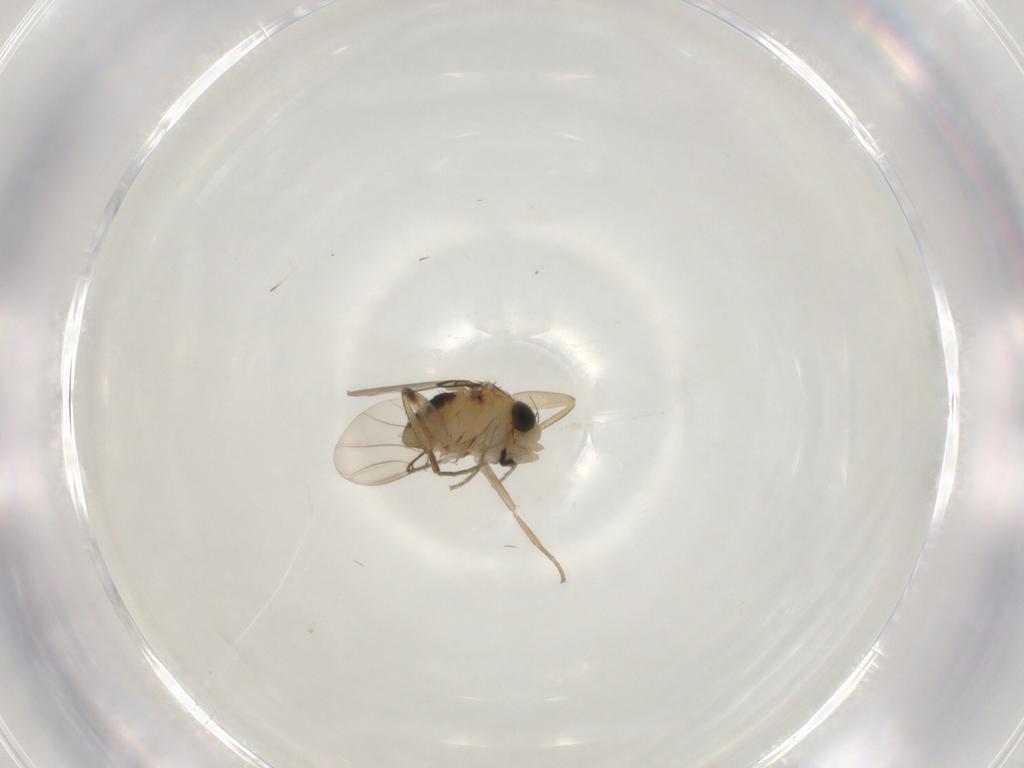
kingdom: Animalia
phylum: Arthropoda
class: Insecta
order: Diptera
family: Phoridae
